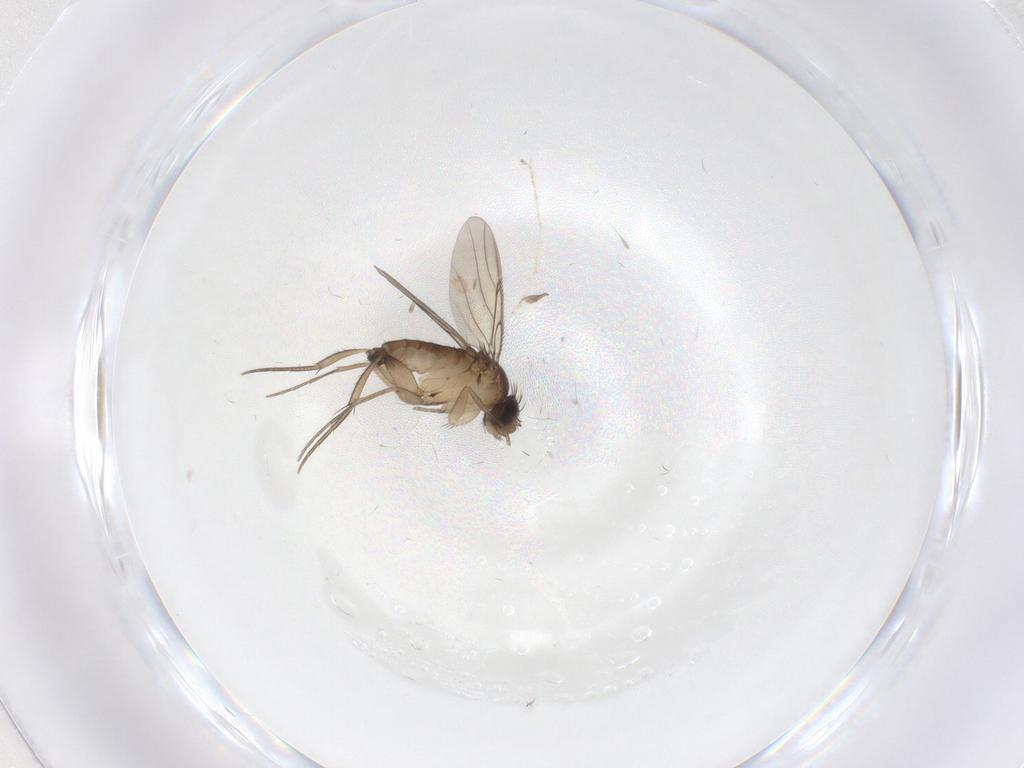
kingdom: Animalia
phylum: Arthropoda
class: Insecta
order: Diptera
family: Phoridae
